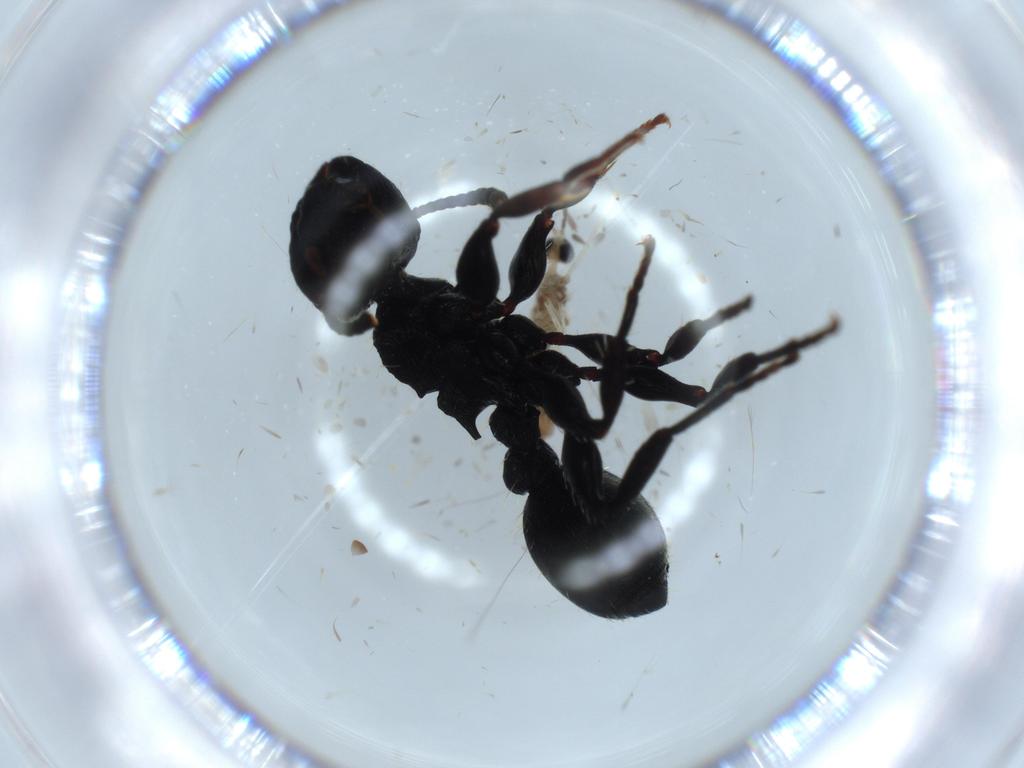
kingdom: Animalia
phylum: Arthropoda
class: Insecta
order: Diptera
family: Cecidomyiidae
